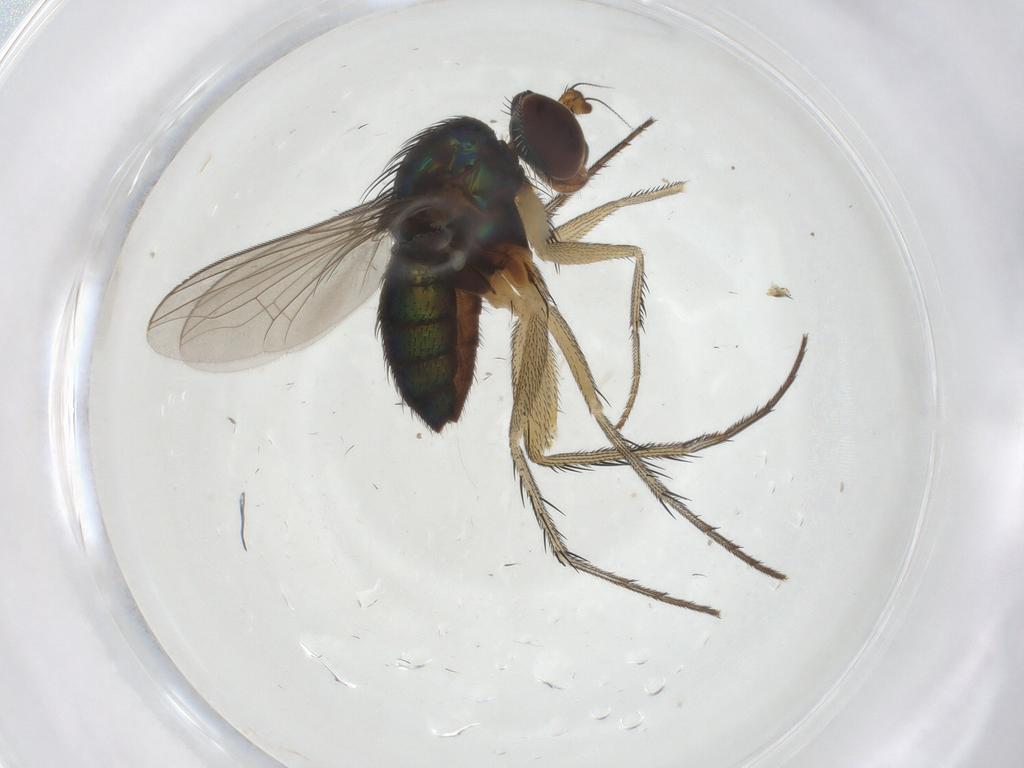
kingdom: Animalia
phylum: Arthropoda
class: Insecta
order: Diptera
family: Dolichopodidae
